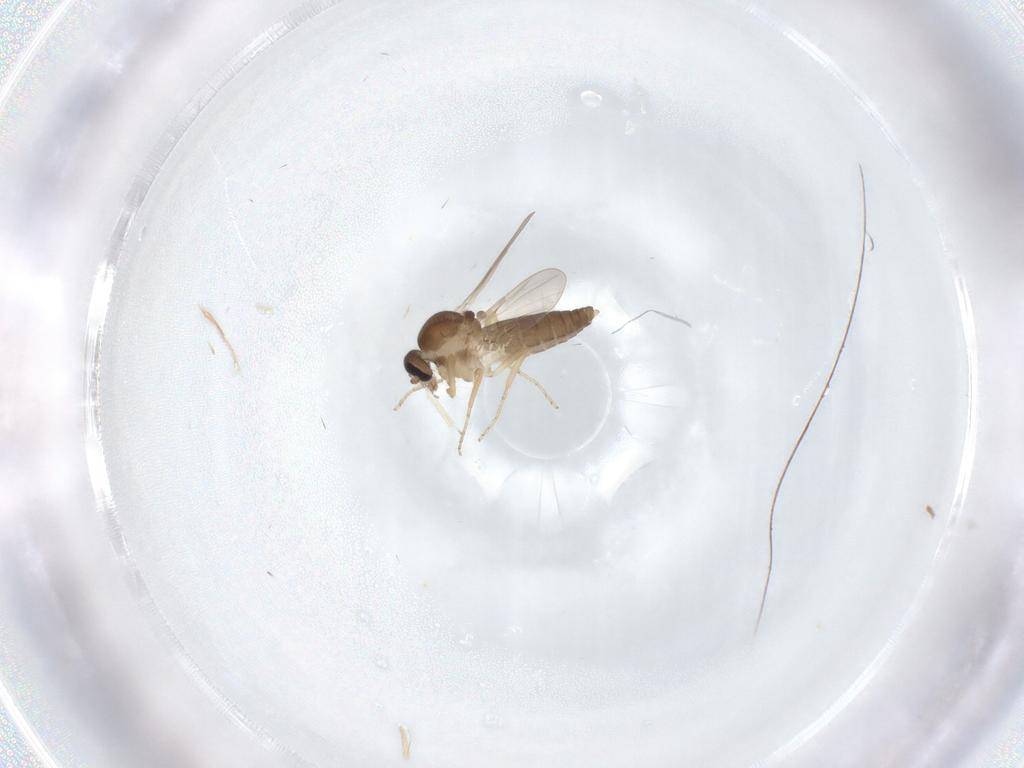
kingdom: Animalia
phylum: Arthropoda
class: Insecta
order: Diptera
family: Ceratopogonidae
